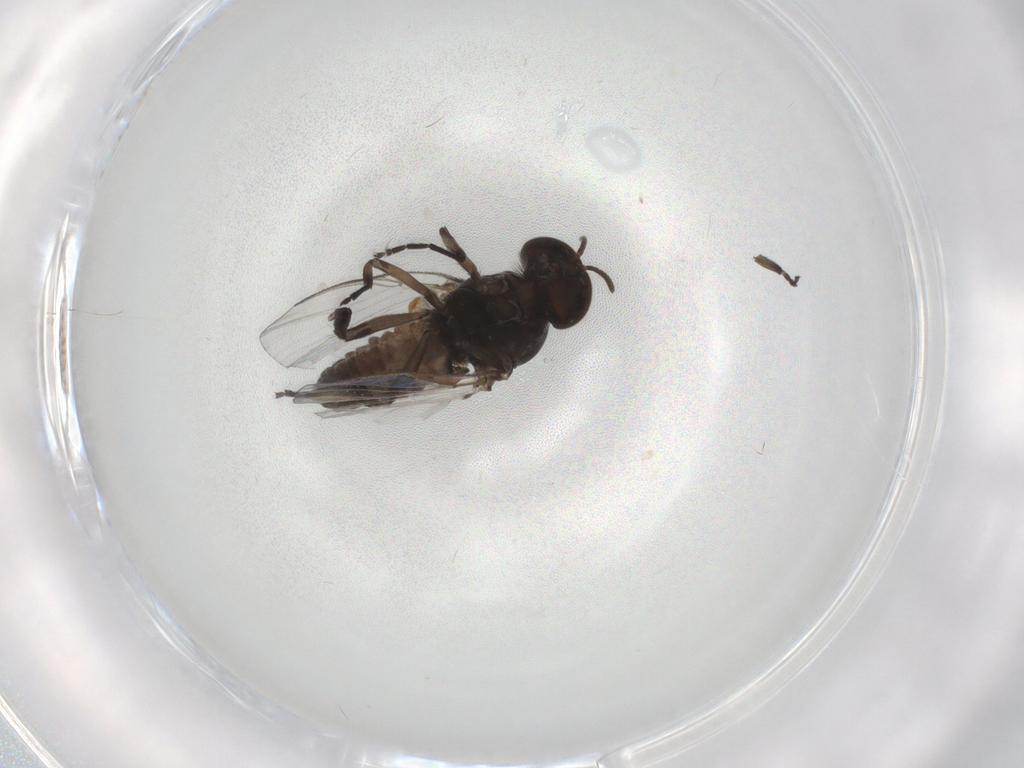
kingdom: Animalia
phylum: Arthropoda
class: Insecta
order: Diptera
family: Simuliidae
